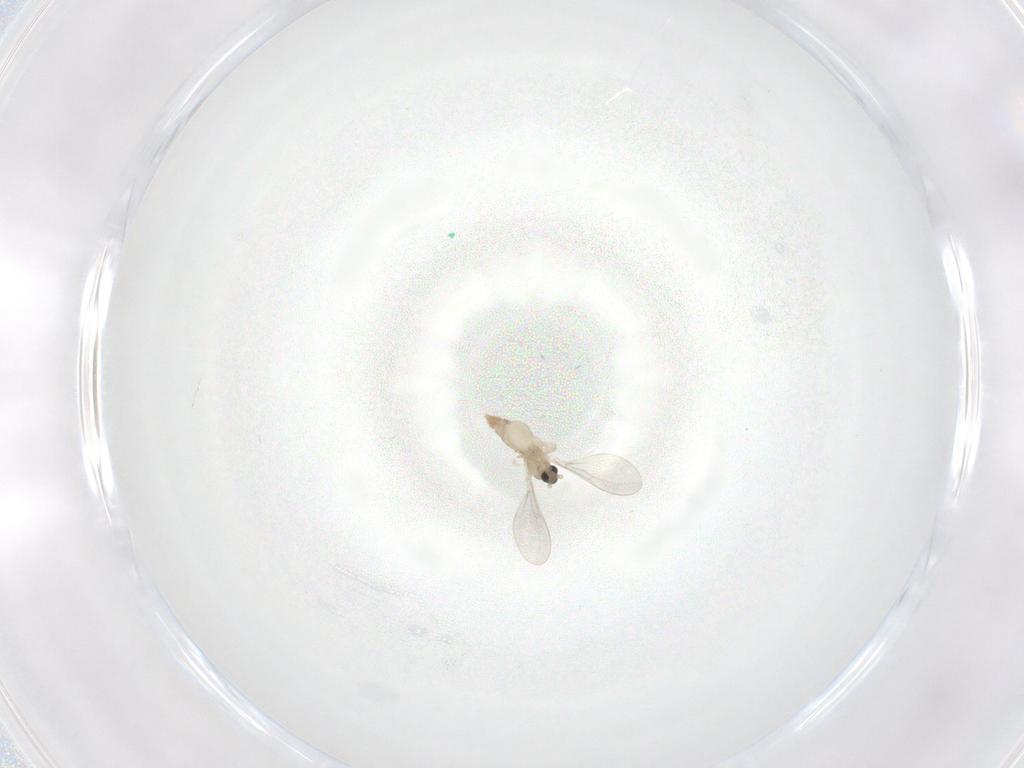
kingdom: Animalia
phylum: Arthropoda
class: Insecta
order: Diptera
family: Cecidomyiidae
